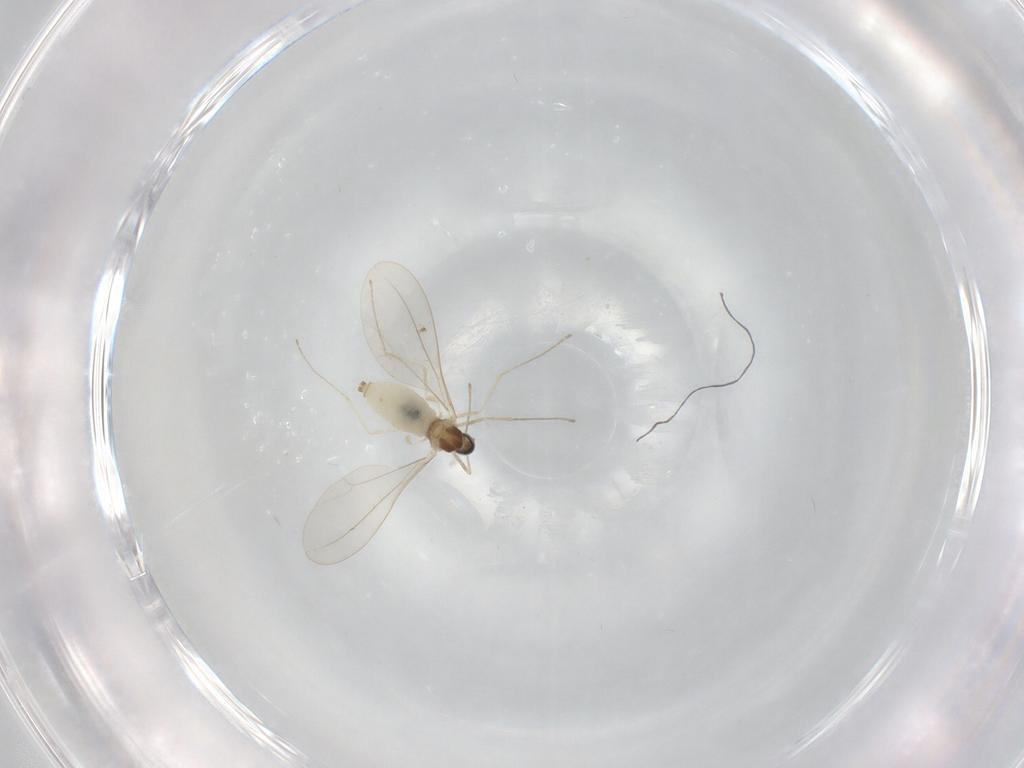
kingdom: Animalia
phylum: Arthropoda
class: Insecta
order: Diptera
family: Cecidomyiidae
